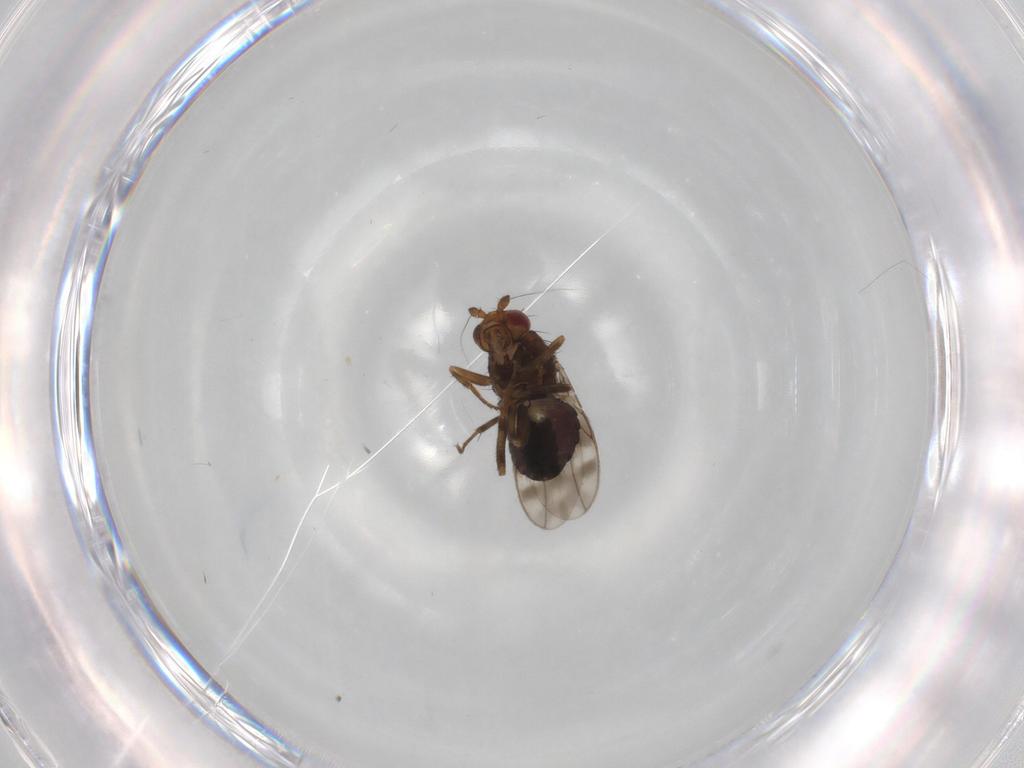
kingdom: Animalia
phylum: Arthropoda
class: Insecta
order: Diptera
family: Sphaeroceridae
